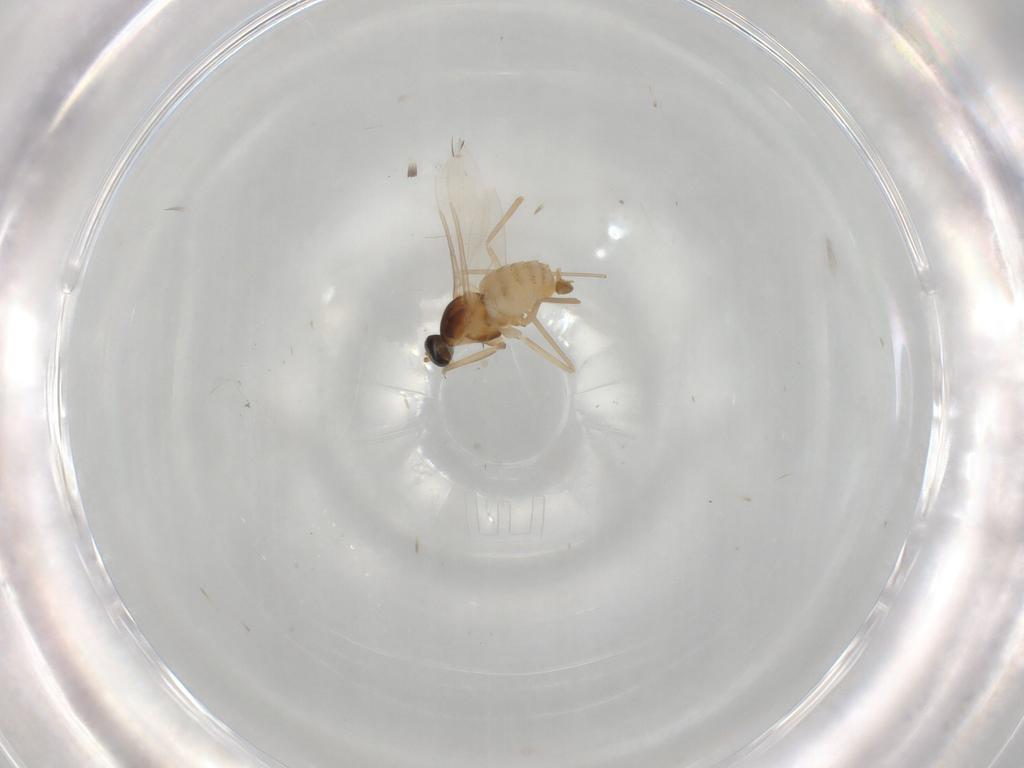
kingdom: Animalia
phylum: Arthropoda
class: Insecta
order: Diptera
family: Cecidomyiidae
